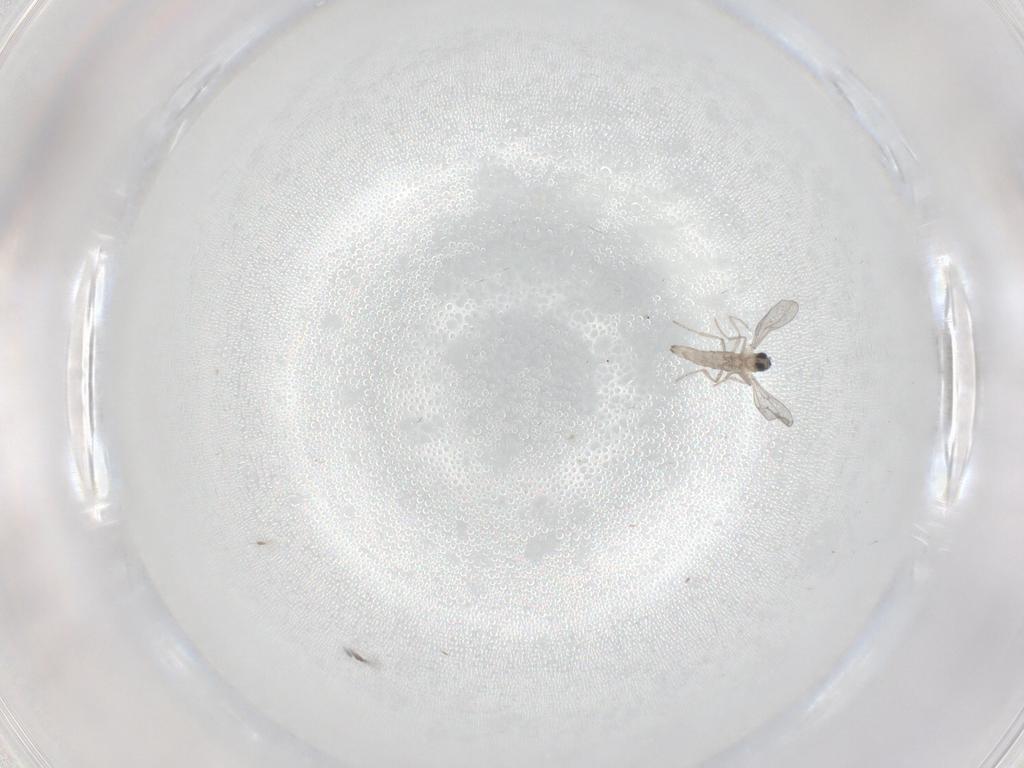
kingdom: Animalia
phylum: Arthropoda
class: Insecta
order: Diptera
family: Cecidomyiidae
